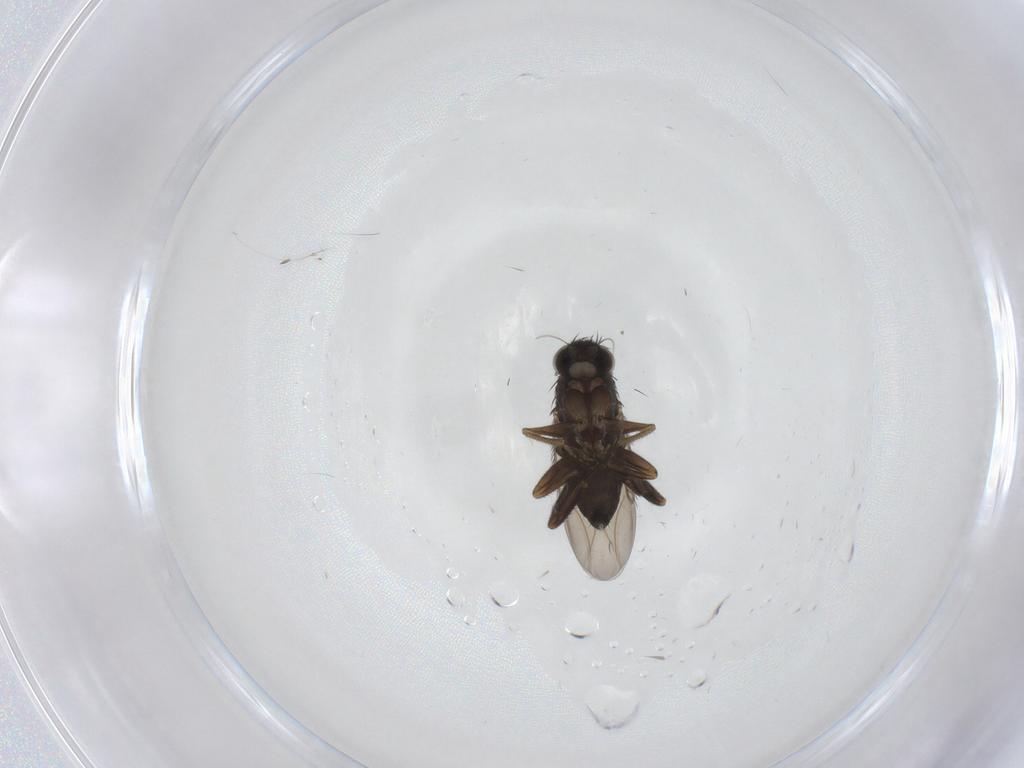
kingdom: Animalia
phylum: Arthropoda
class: Insecta
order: Diptera
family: Phoridae
